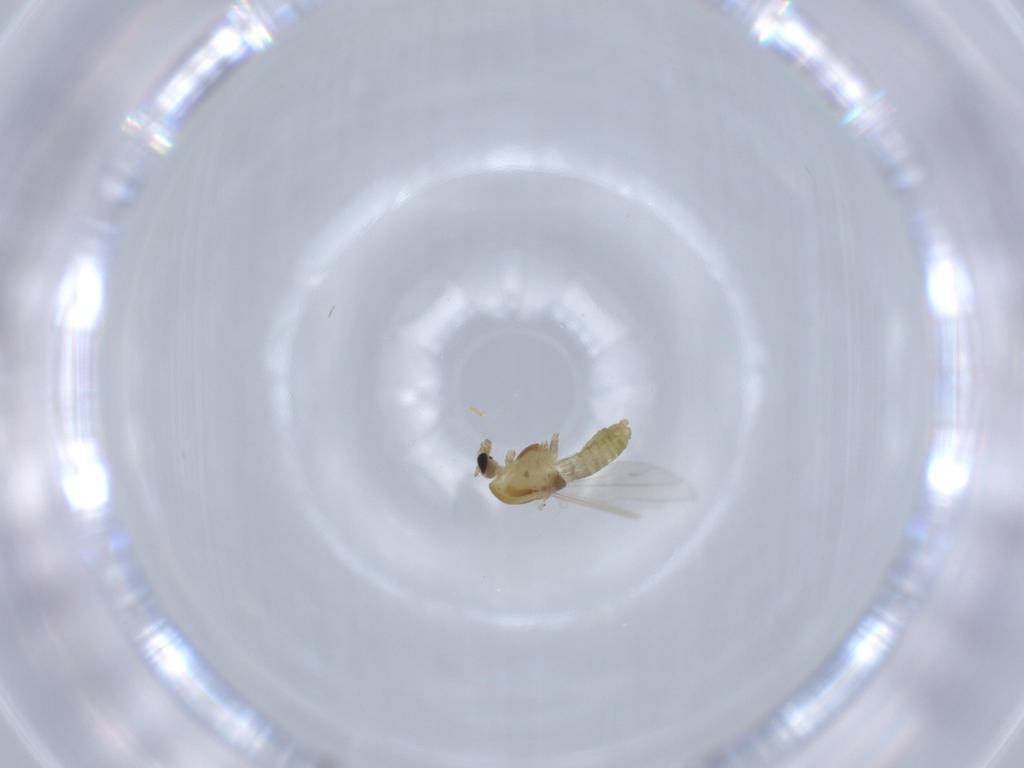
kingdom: Animalia
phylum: Arthropoda
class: Insecta
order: Diptera
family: Chironomidae
